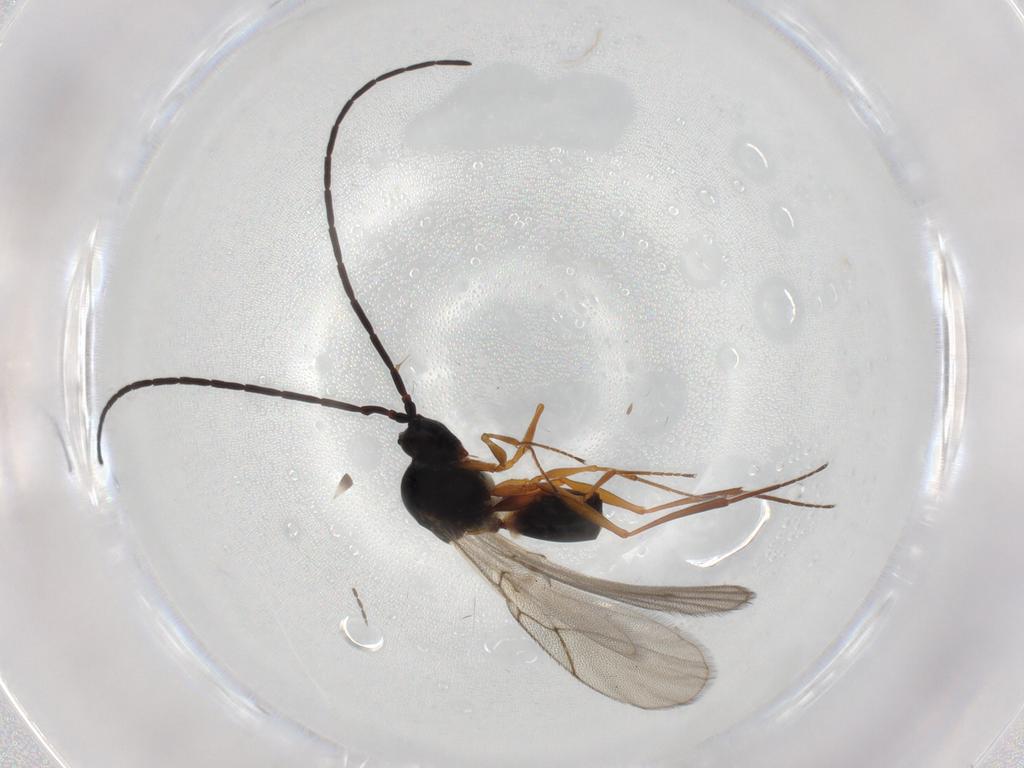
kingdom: Animalia
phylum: Arthropoda
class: Insecta
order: Hymenoptera
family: Figitidae
